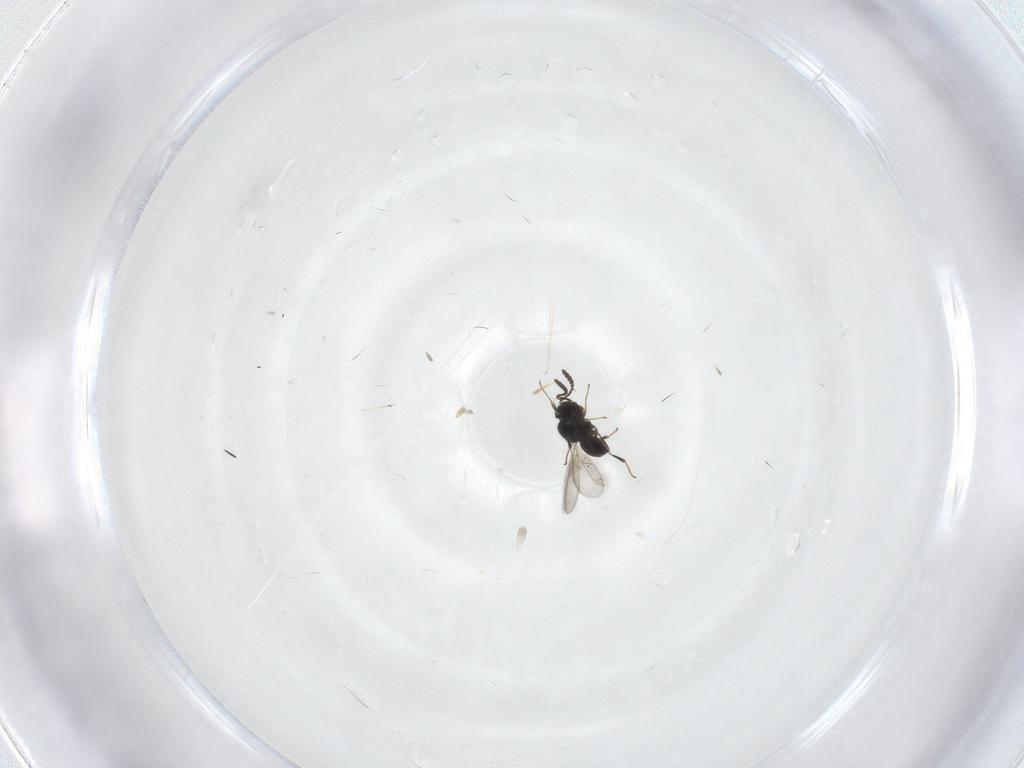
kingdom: Animalia
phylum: Arthropoda
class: Insecta
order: Hymenoptera
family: Scelionidae
